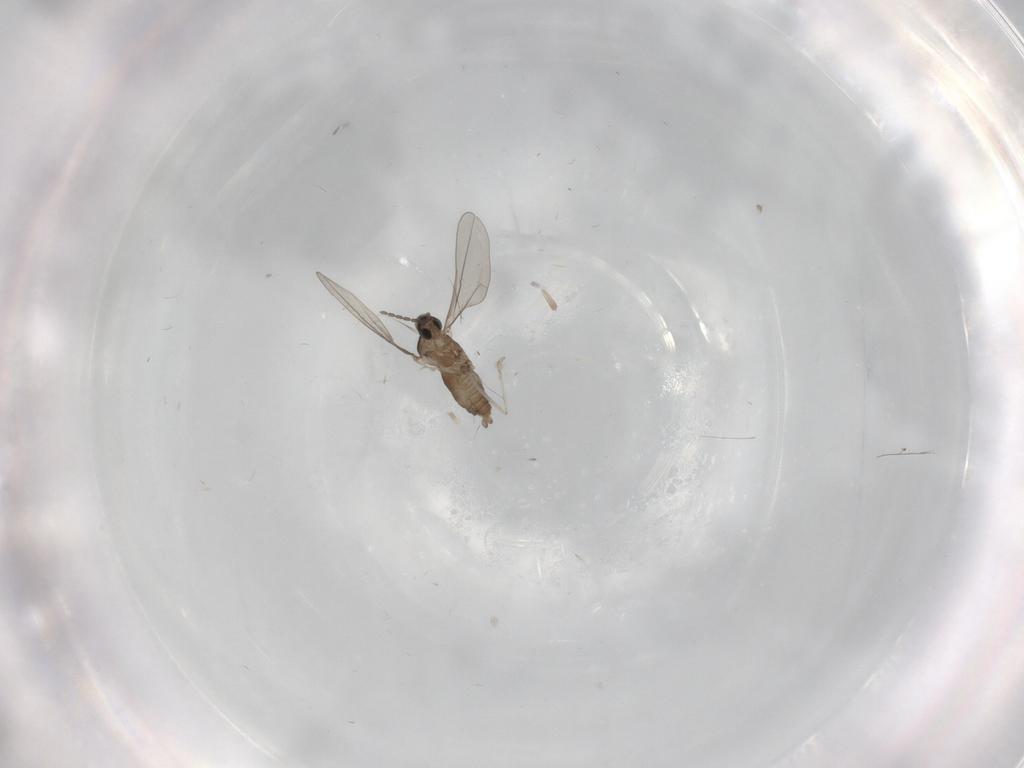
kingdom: Animalia
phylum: Arthropoda
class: Insecta
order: Diptera
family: Cecidomyiidae
